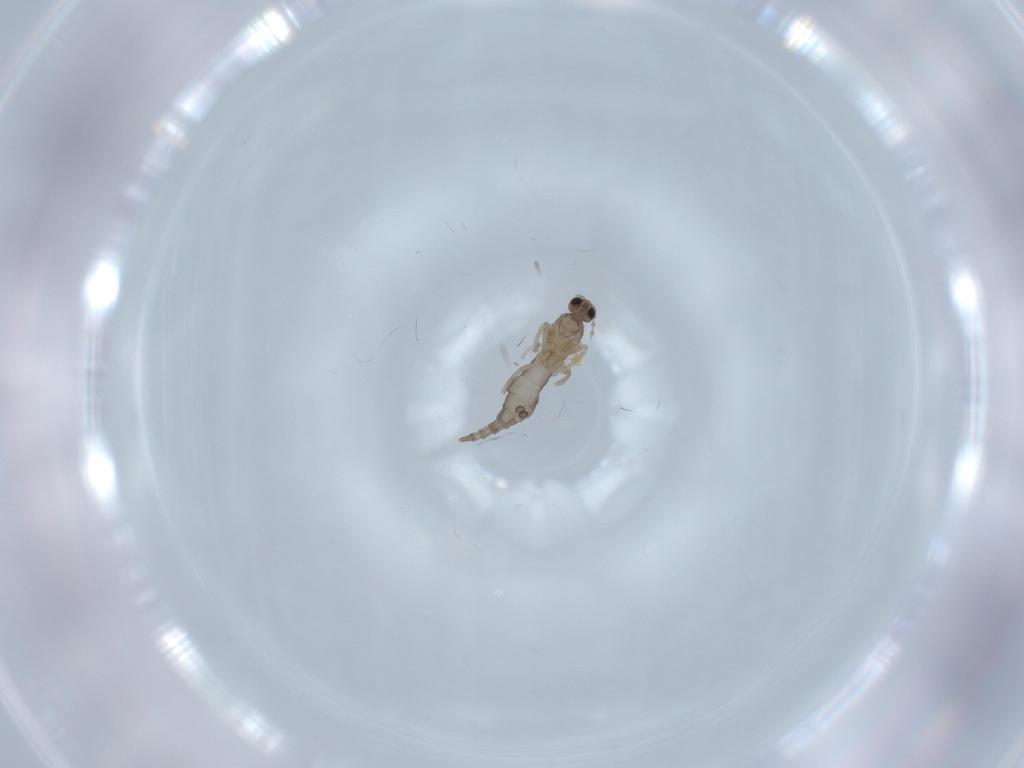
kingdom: Animalia
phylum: Arthropoda
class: Insecta
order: Diptera
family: Cecidomyiidae
